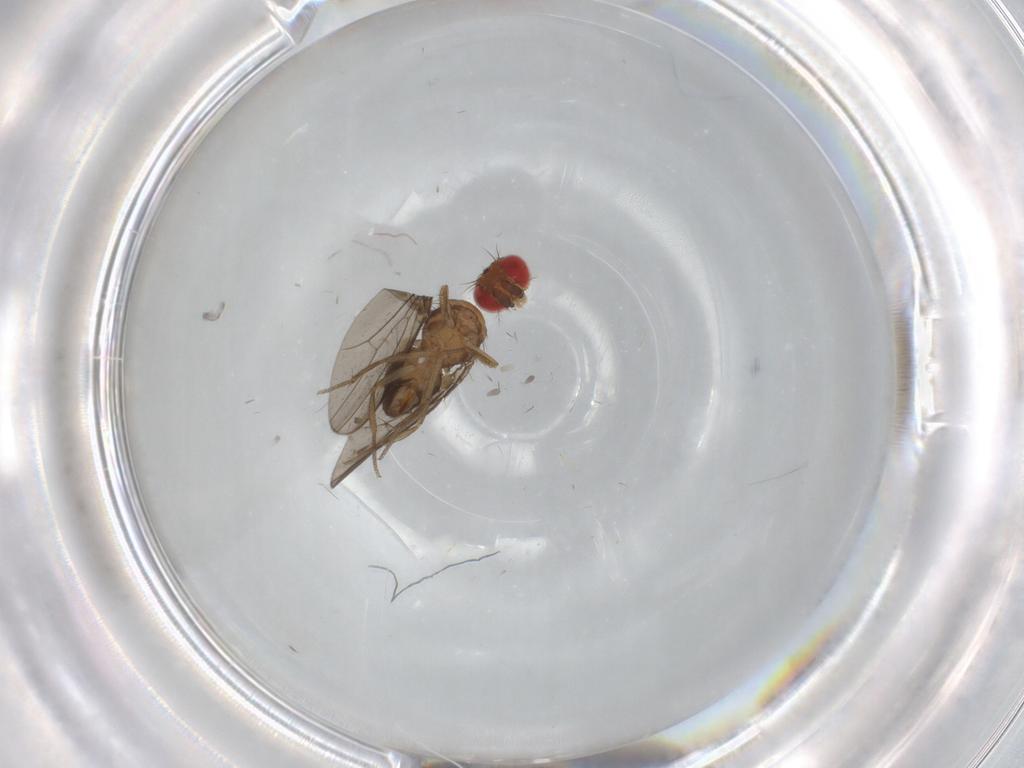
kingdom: Animalia
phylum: Arthropoda
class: Insecta
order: Diptera
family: Drosophilidae
